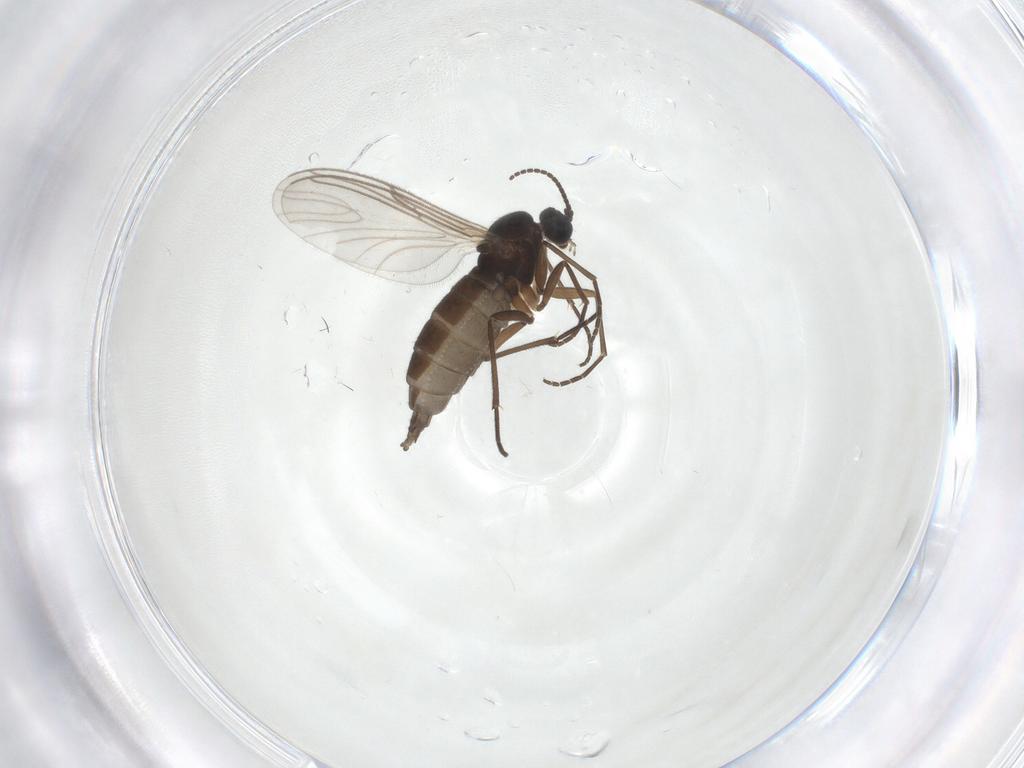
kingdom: Animalia
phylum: Arthropoda
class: Insecta
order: Diptera
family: Sciaridae
